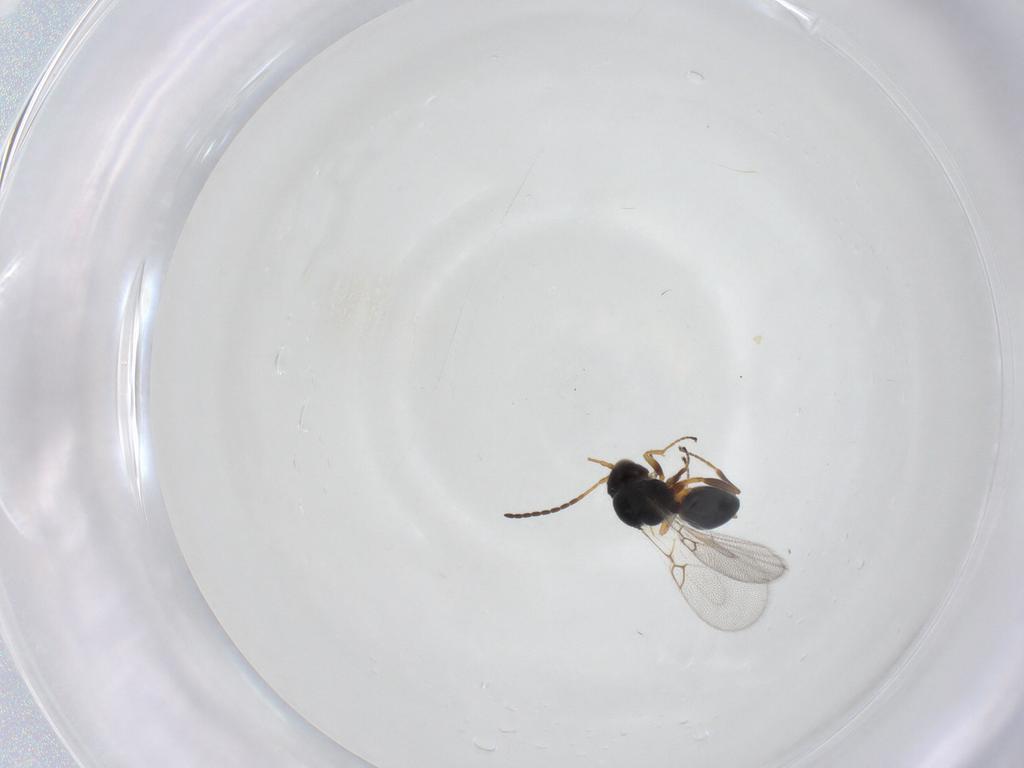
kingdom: Animalia
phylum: Arthropoda
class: Insecta
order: Hymenoptera
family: Figitidae
